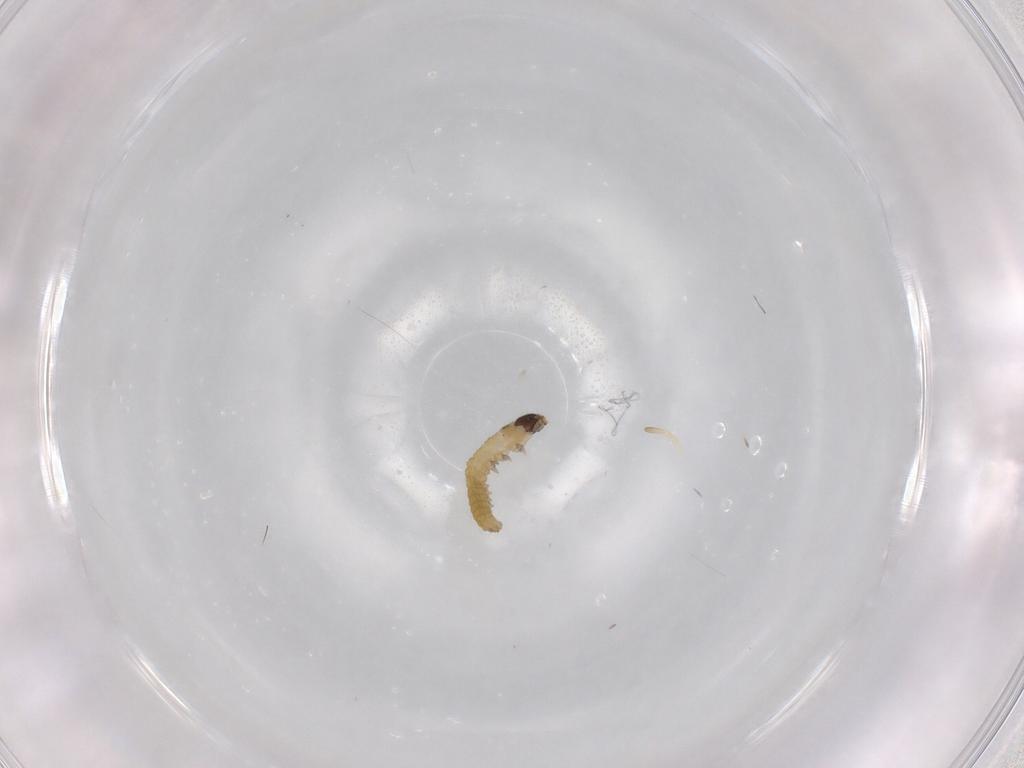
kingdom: Animalia
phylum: Arthropoda
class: Insecta
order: Lepidoptera
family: Tortricidae
